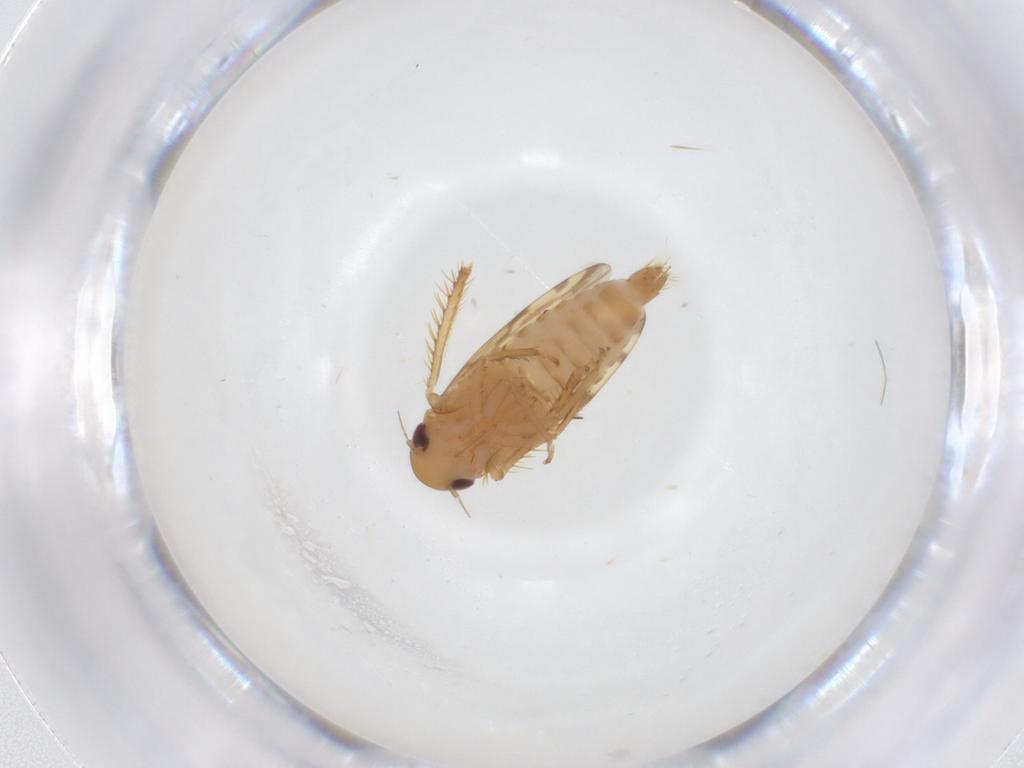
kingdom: Animalia
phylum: Arthropoda
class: Insecta
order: Hemiptera
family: Cicadellidae
